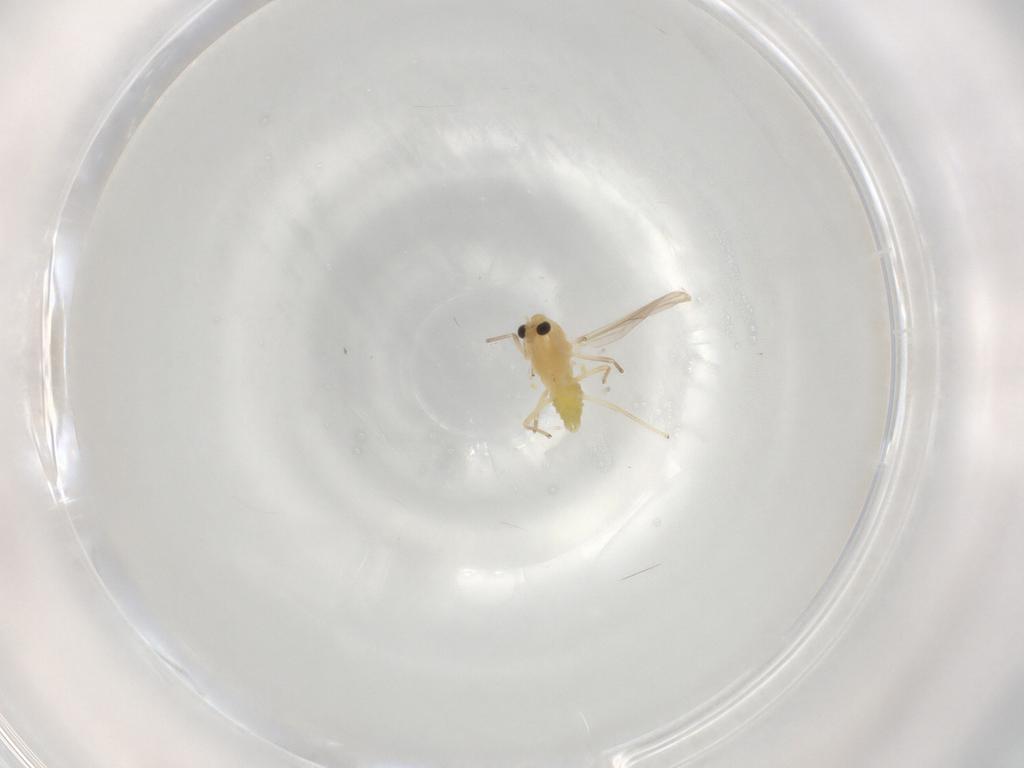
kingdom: Animalia
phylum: Arthropoda
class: Insecta
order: Diptera
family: Chironomidae
